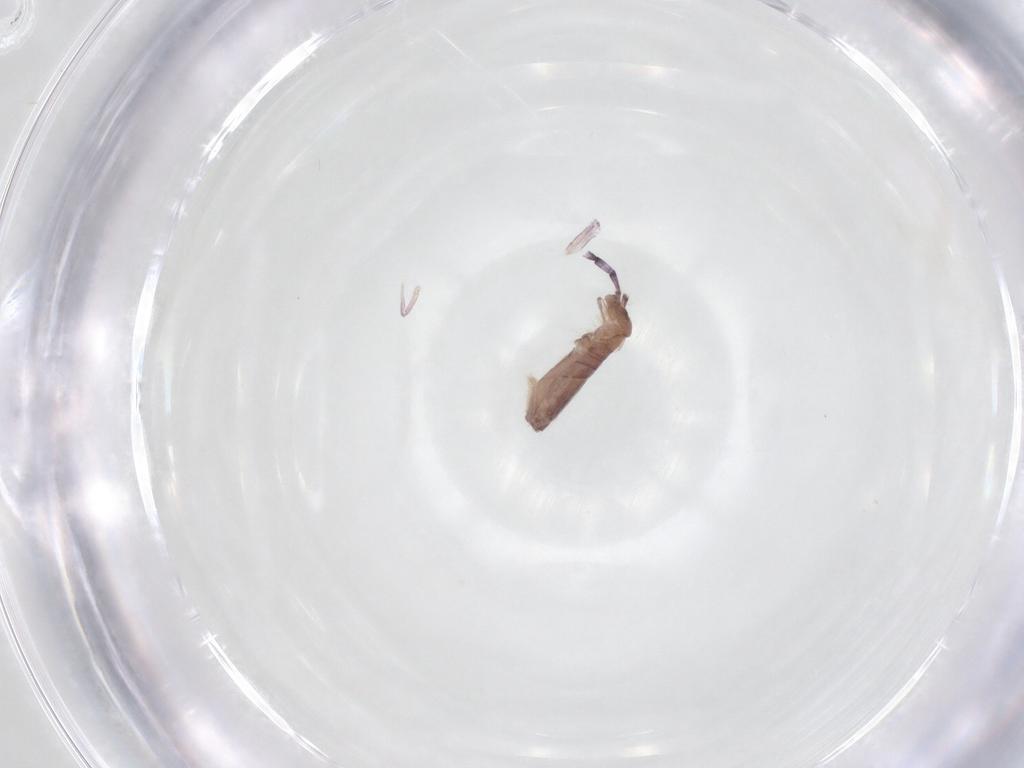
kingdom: Animalia
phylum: Arthropoda
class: Collembola
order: Entomobryomorpha
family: Entomobryidae
